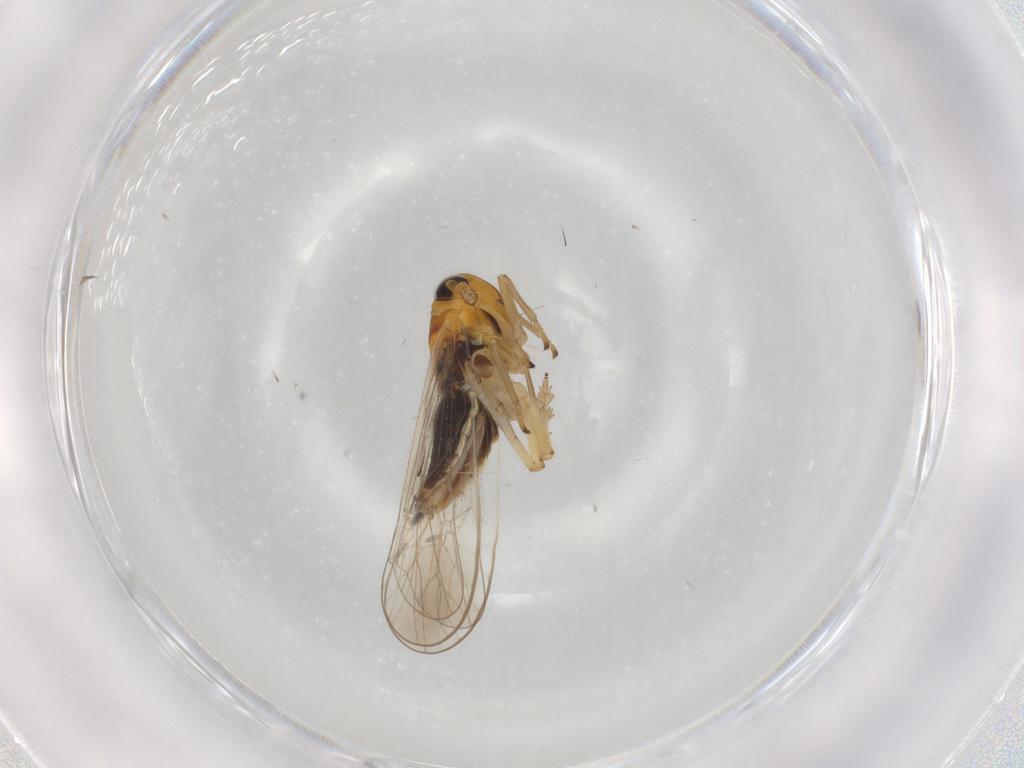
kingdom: Animalia
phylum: Arthropoda
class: Insecta
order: Hemiptera
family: Delphacidae
